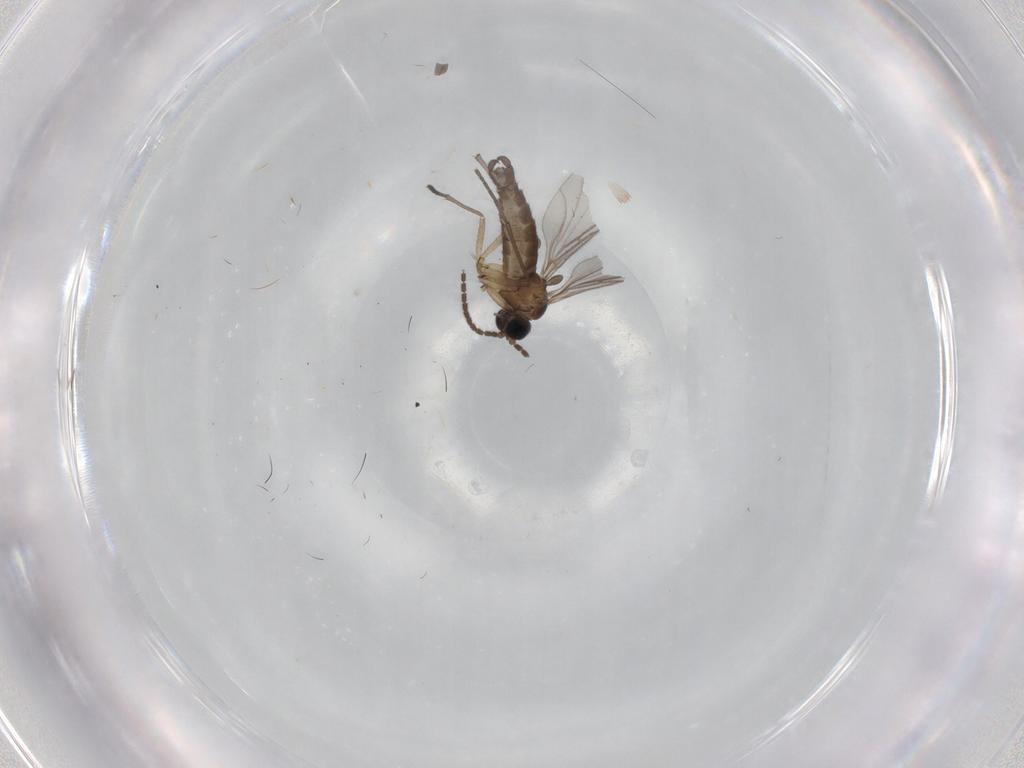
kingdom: Animalia
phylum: Arthropoda
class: Insecta
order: Diptera
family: Sciaridae
